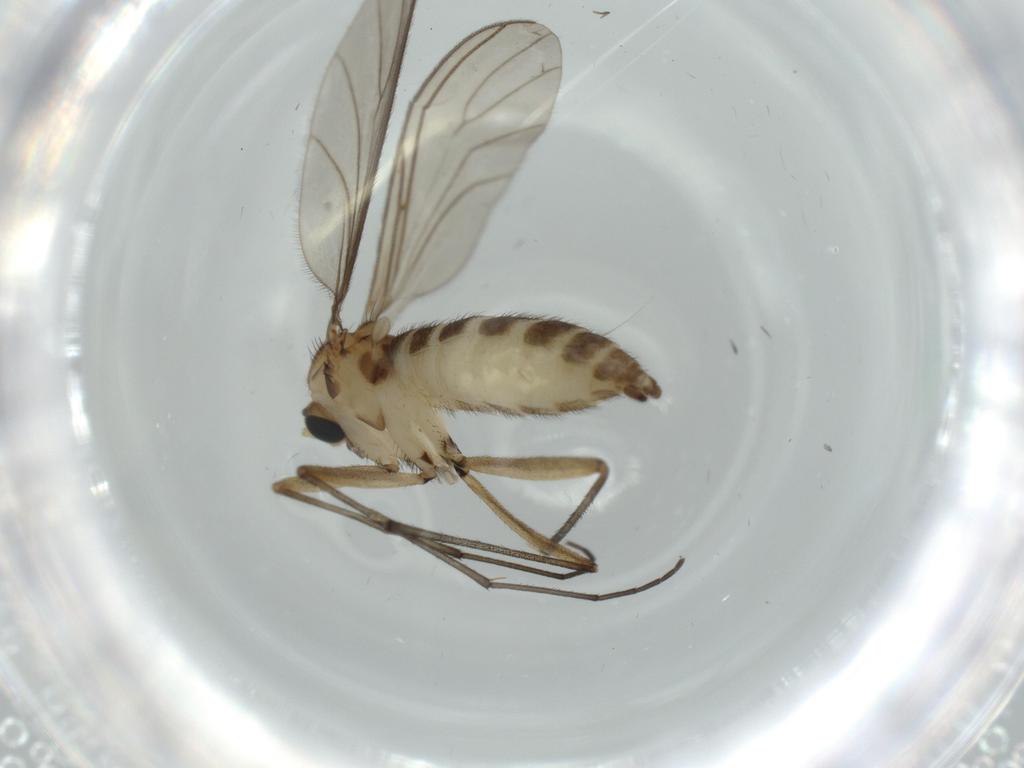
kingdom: Animalia
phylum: Arthropoda
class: Insecta
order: Diptera
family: Sciaridae
